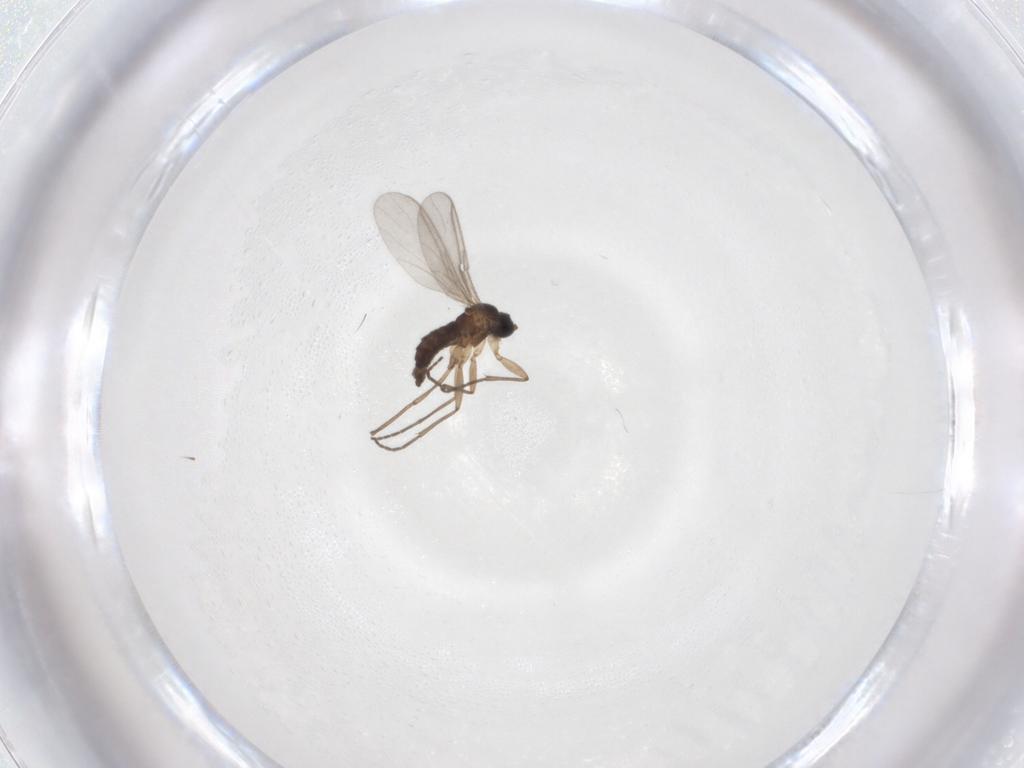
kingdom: Animalia
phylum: Arthropoda
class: Insecta
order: Diptera
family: Sciaridae
